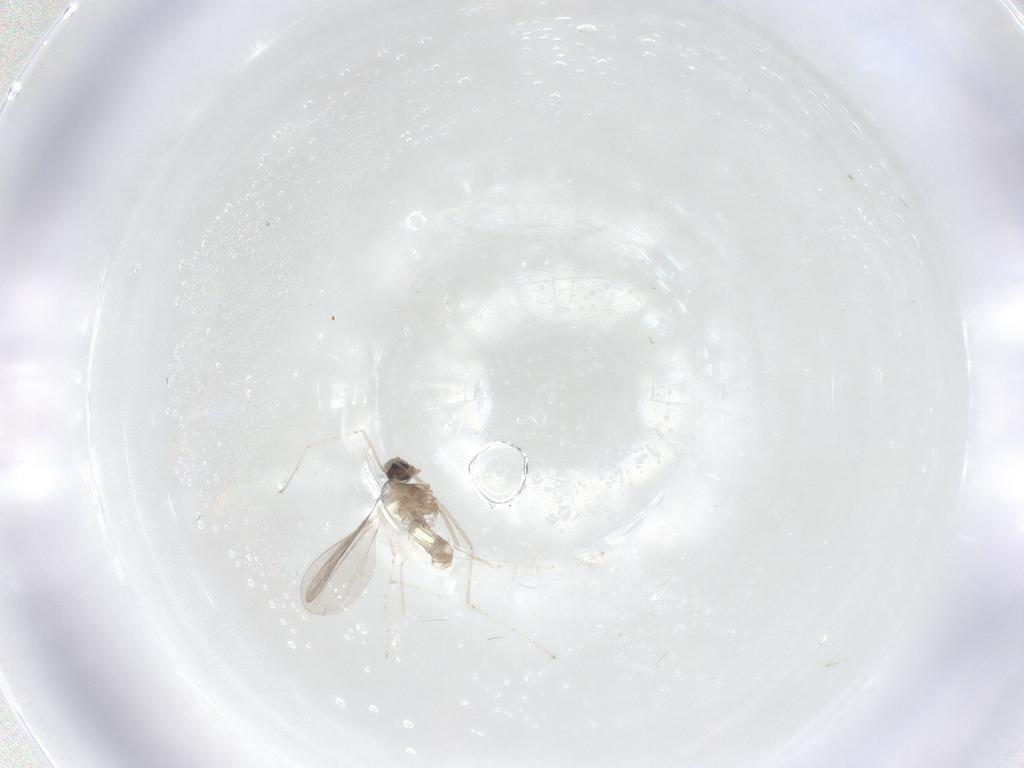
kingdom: Animalia
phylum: Arthropoda
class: Insecta
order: Diptera
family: Cecidomyiidae
